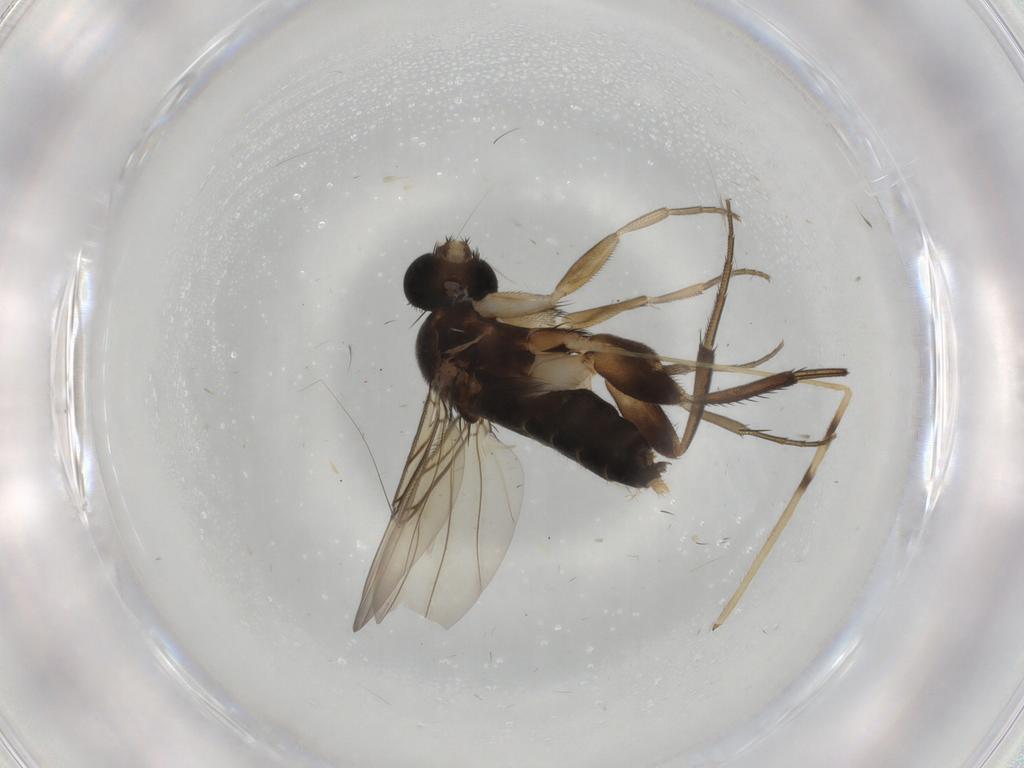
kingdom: Animalia
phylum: Arthropoda
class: Insecta
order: Diptera
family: Phoridae
